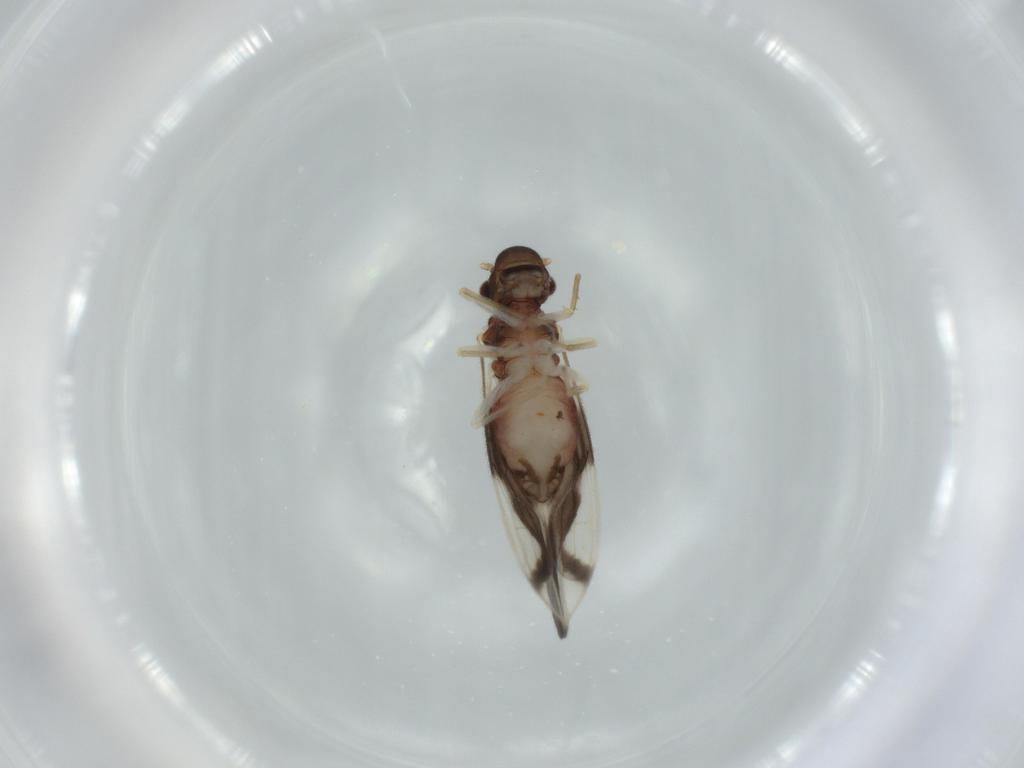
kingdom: Animalia
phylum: Arthropoda
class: Insecta
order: Psocodea
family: Caeciliusidae
